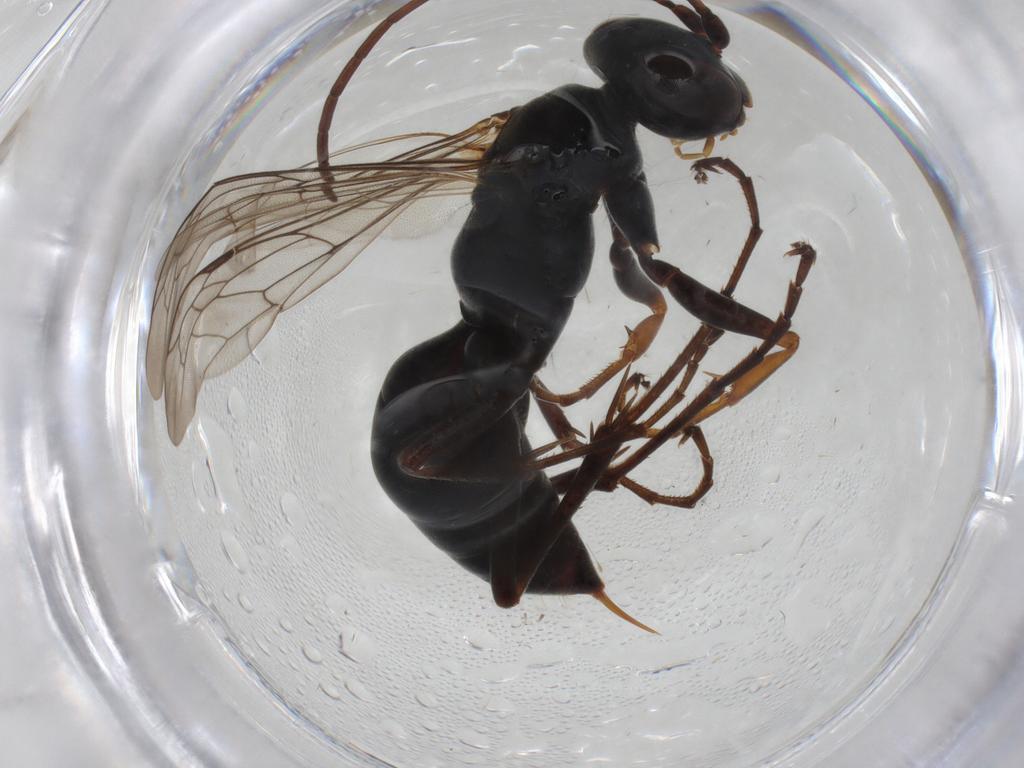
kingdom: Animalia
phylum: Arthropoda
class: Insecta
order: Hymenoptera
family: Pompilidae
